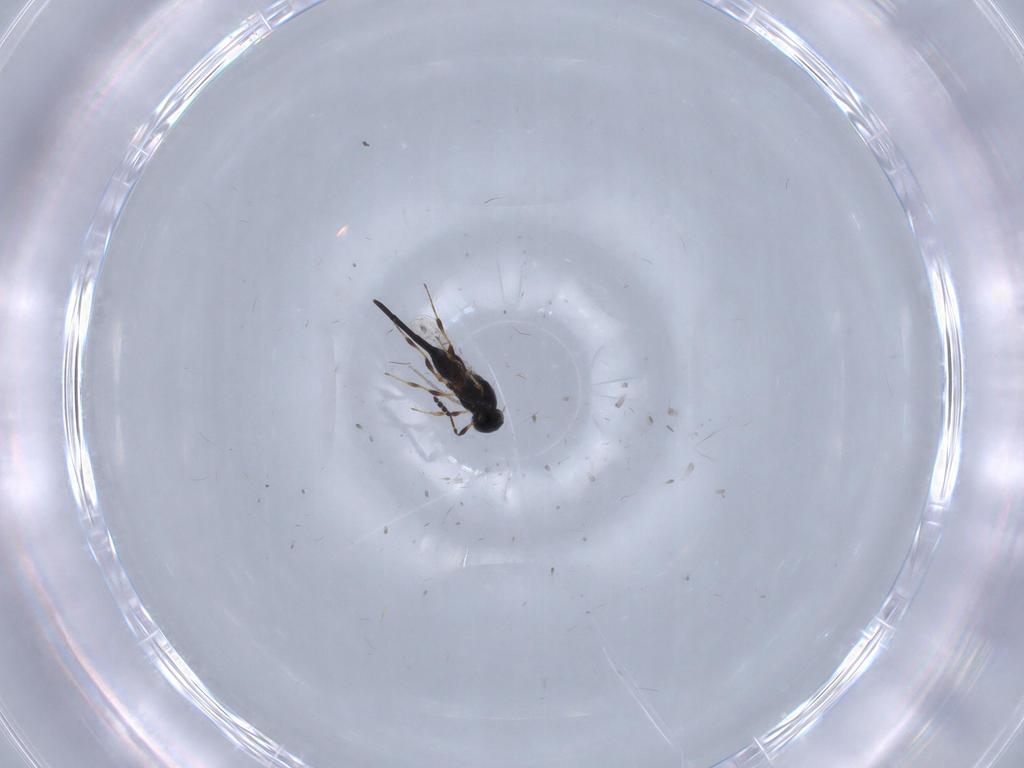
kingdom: Animalia
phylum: Arthropoda
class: Insecta
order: Hymenoptera
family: Platygastridae
